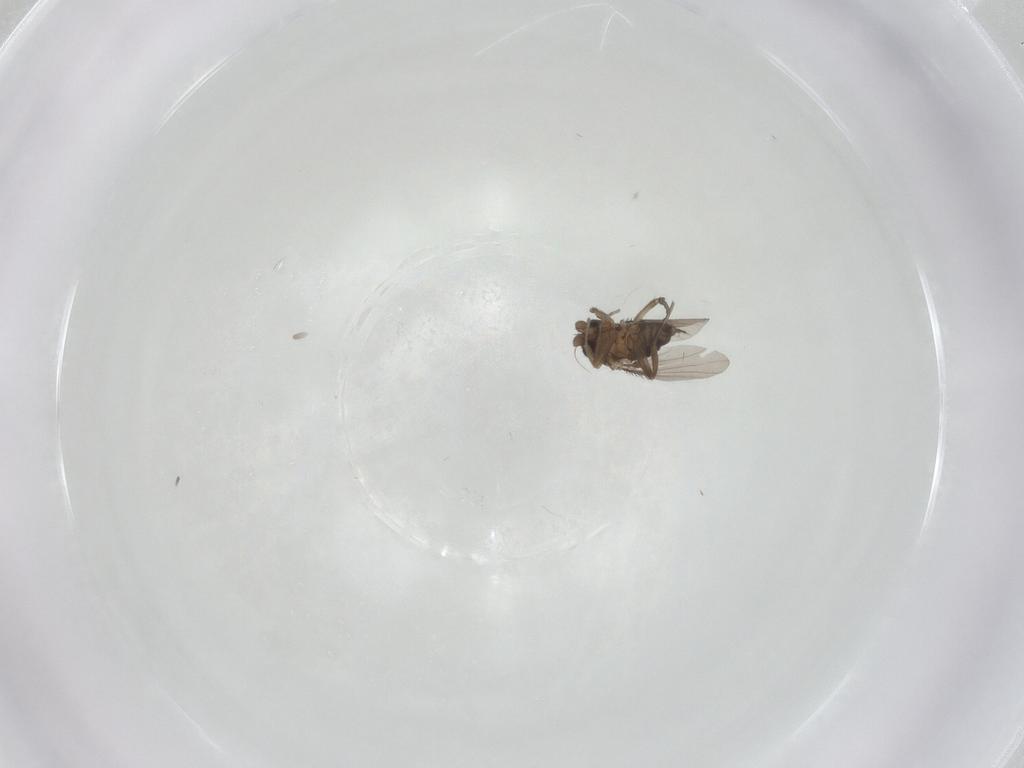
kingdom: Animalia
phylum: Arthropoda
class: Insecta
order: Diptera
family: Phoridae
